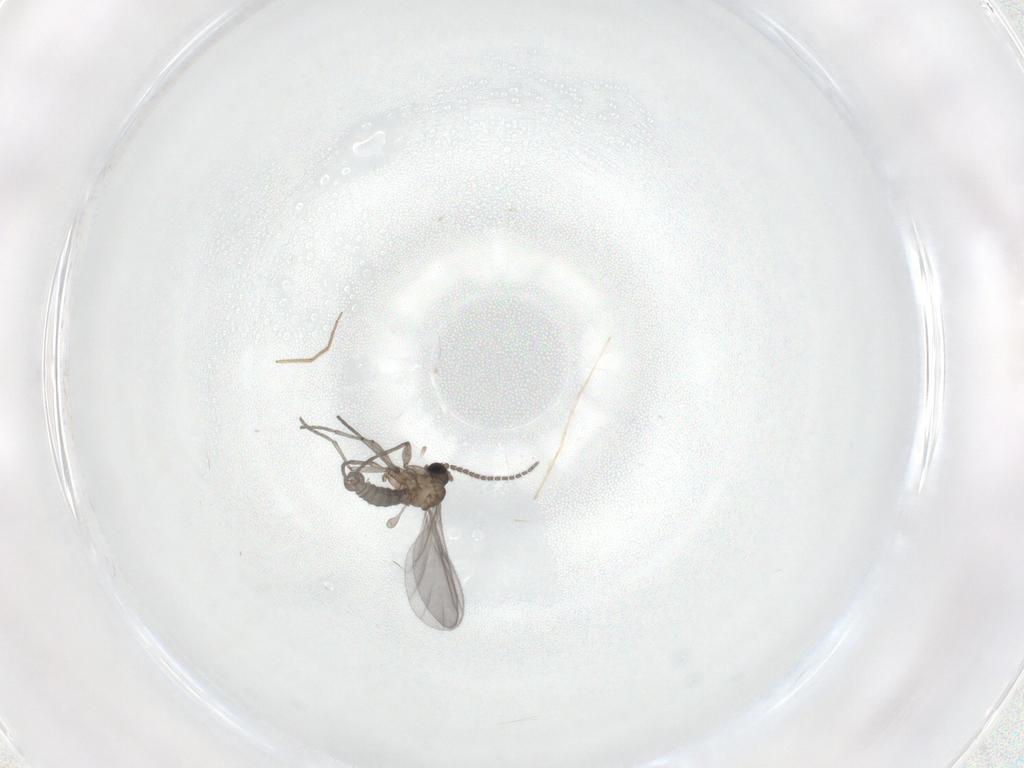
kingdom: Animalia
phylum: Arthropoda
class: Insecta
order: Diptera
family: Sciaridae
